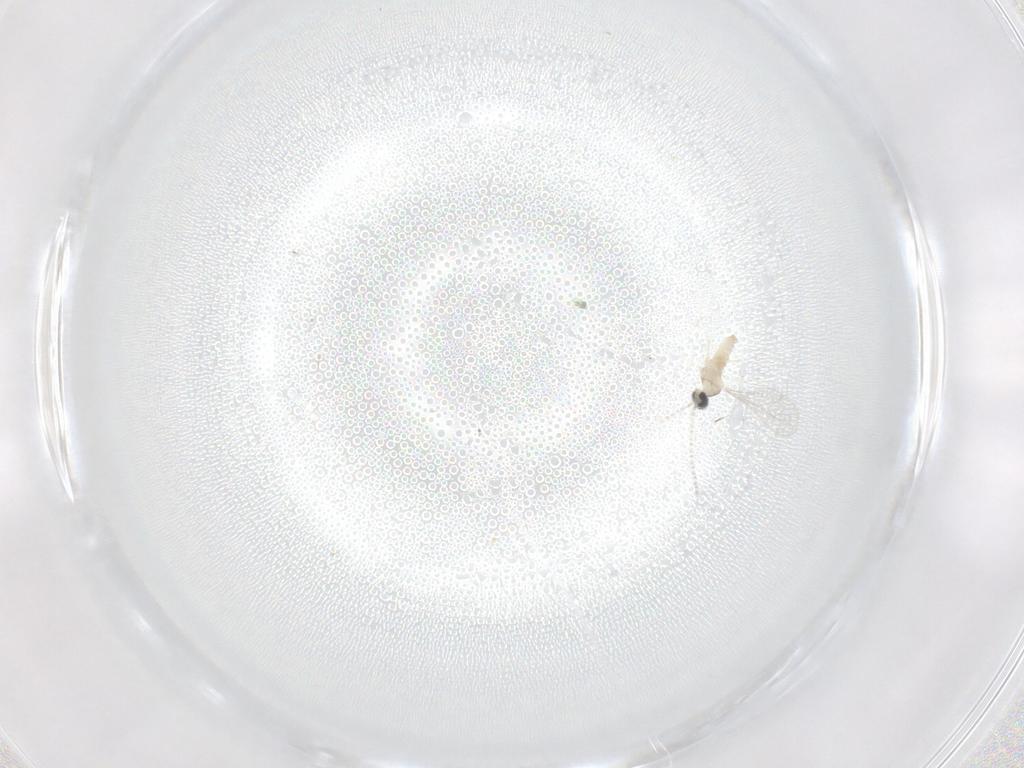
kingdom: Animalia
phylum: Arthropoda
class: Insecta
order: Diptera
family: Cecidomyiidae
